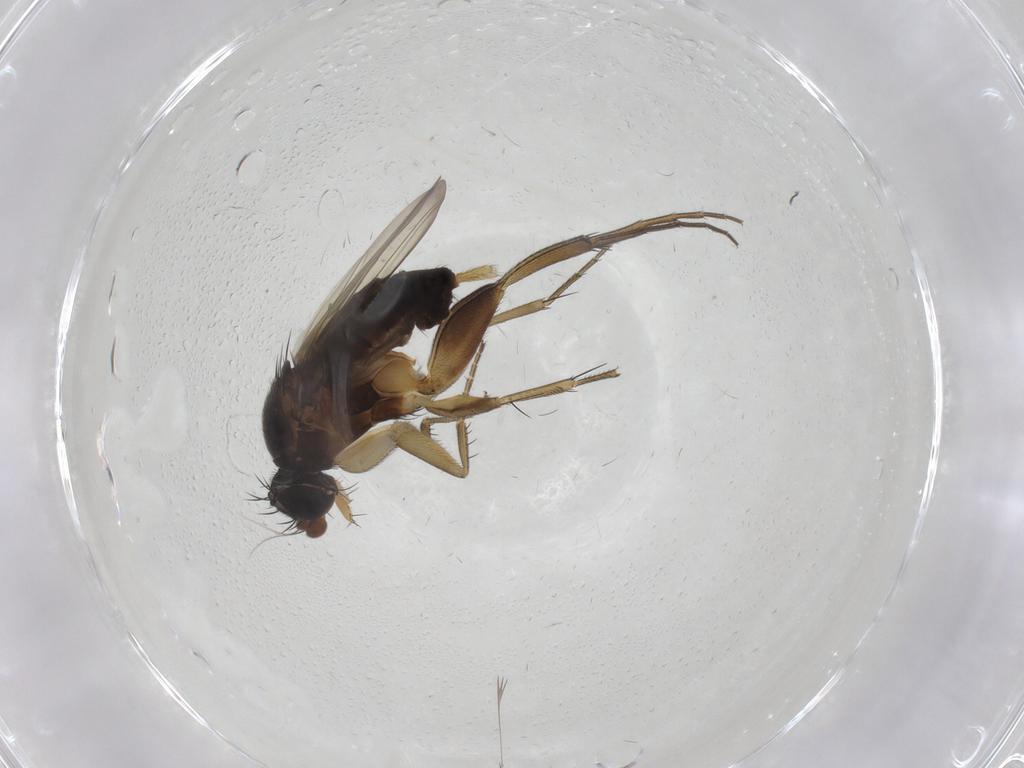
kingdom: Animalia
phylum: Arthropoda
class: Insecta
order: Diptera
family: Phoridae
